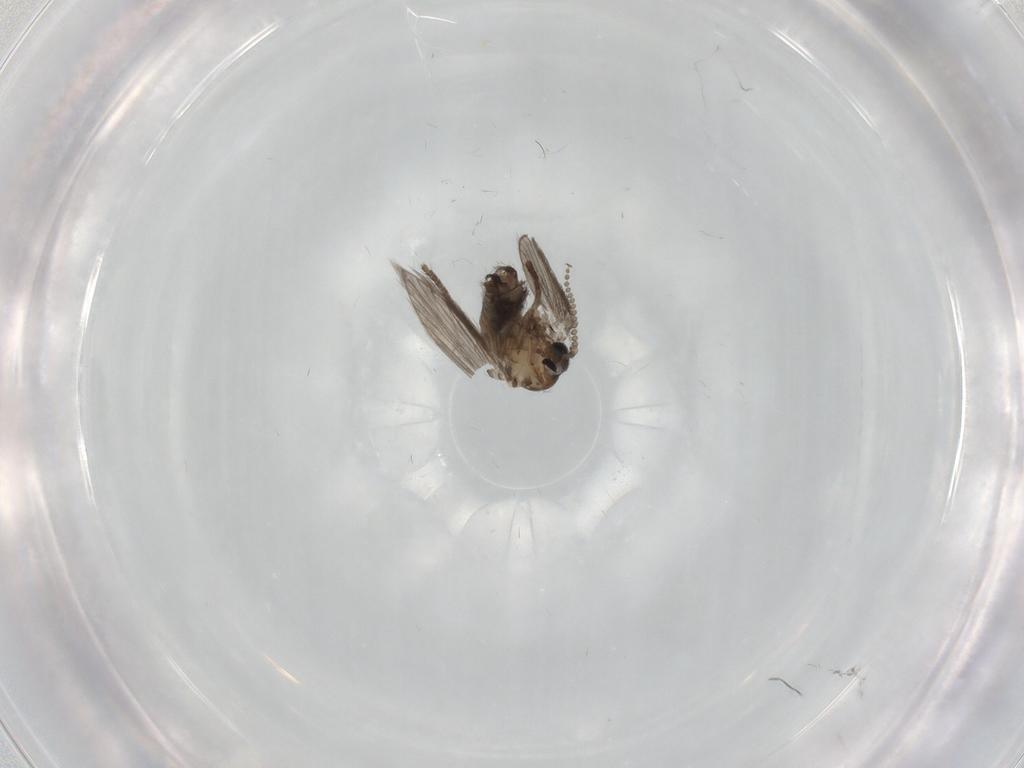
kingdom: Animalia
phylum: Arthropoda
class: Insecta
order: Diptera
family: Psychodidae
